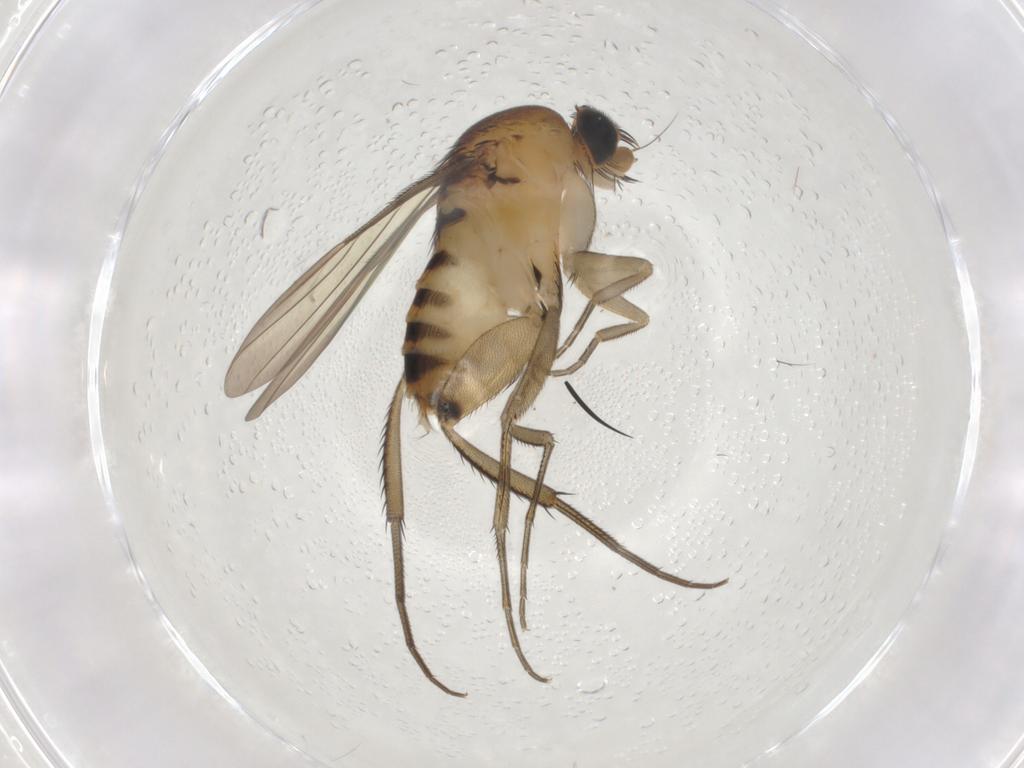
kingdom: Animalia
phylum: Arthropoda
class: Insecta
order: Diptera
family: Phoridae
